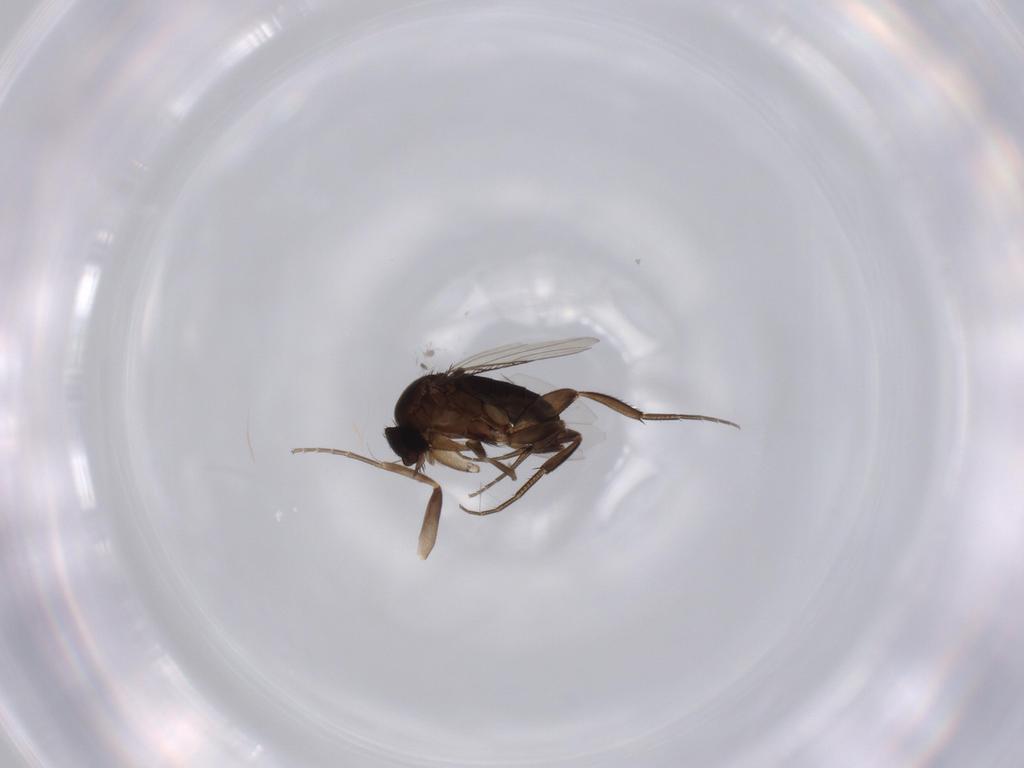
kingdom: Animalia
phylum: Arthropoda
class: Insecta
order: Diptera
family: Phoridae
